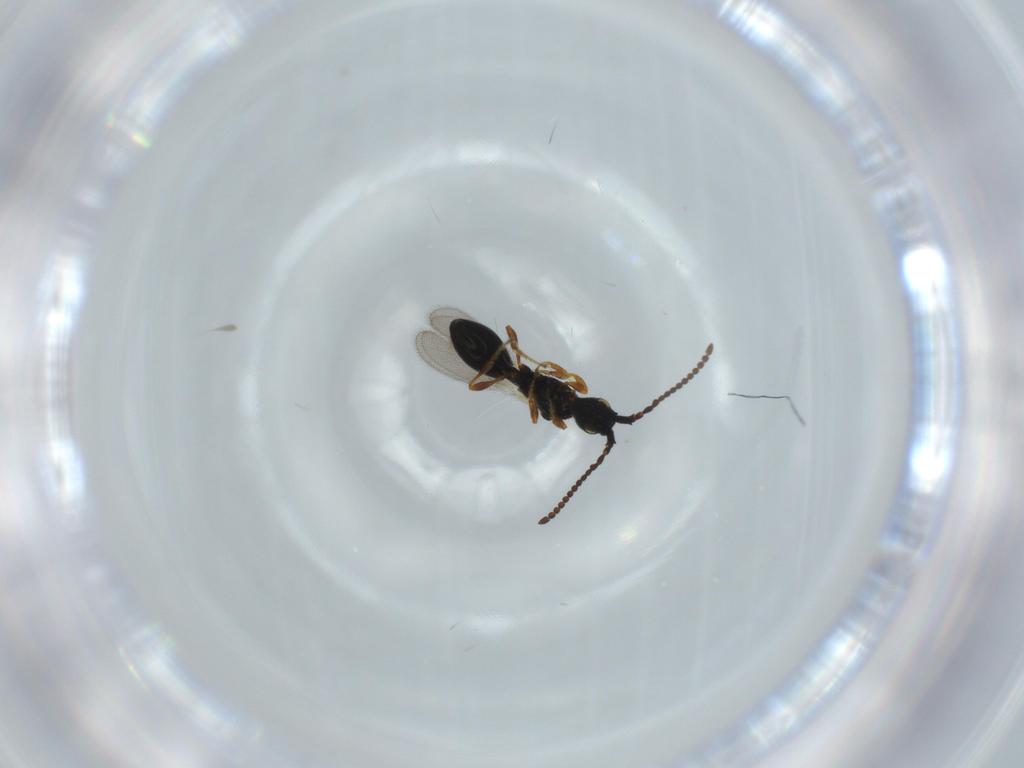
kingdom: Animalia
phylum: Arthropoda
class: Insecta
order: Hymenoptera
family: Diapriidae
